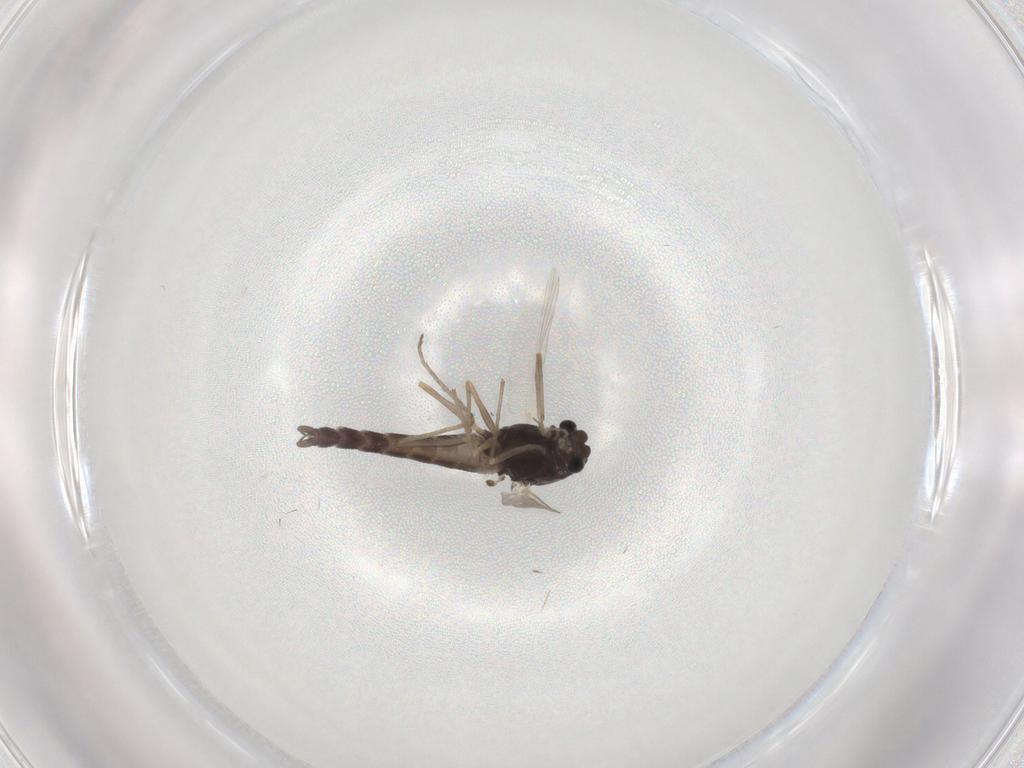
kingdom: Animalia
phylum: Arthropoda
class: Insecta
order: Diptera
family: Chironomidae
